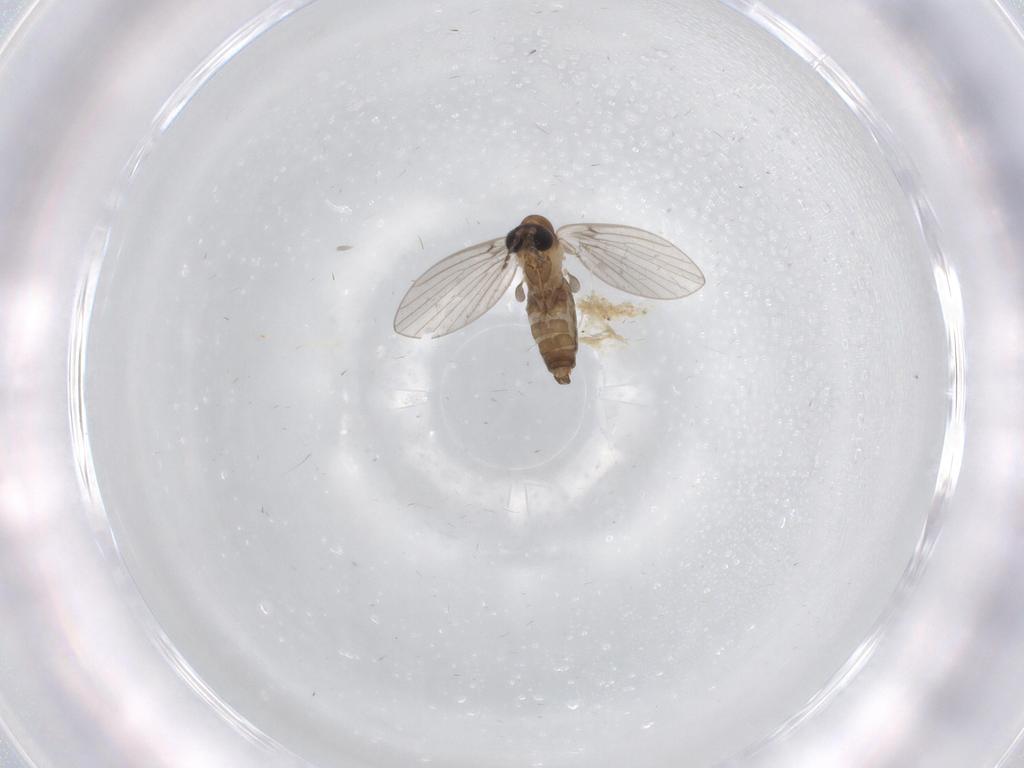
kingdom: Animalia
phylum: Arthropoda
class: Insecta
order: Diptera
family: Psychodidae
